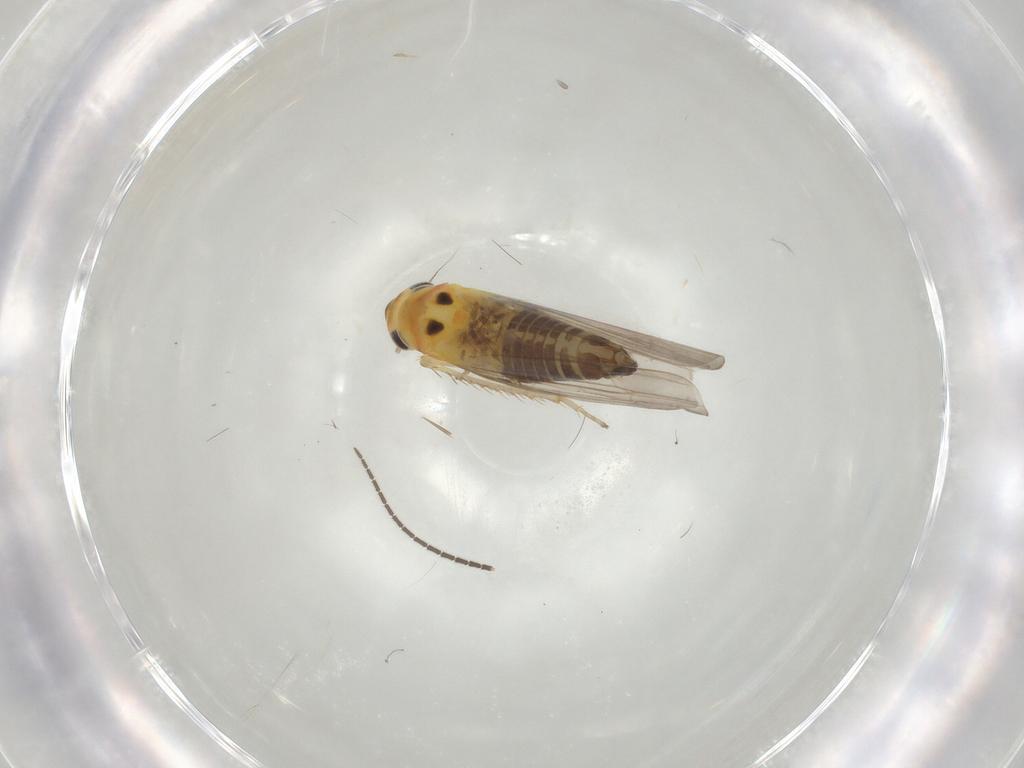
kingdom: Animalia
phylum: Arthropoda
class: Insecta
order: Hemiptera
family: Cicadellidae
